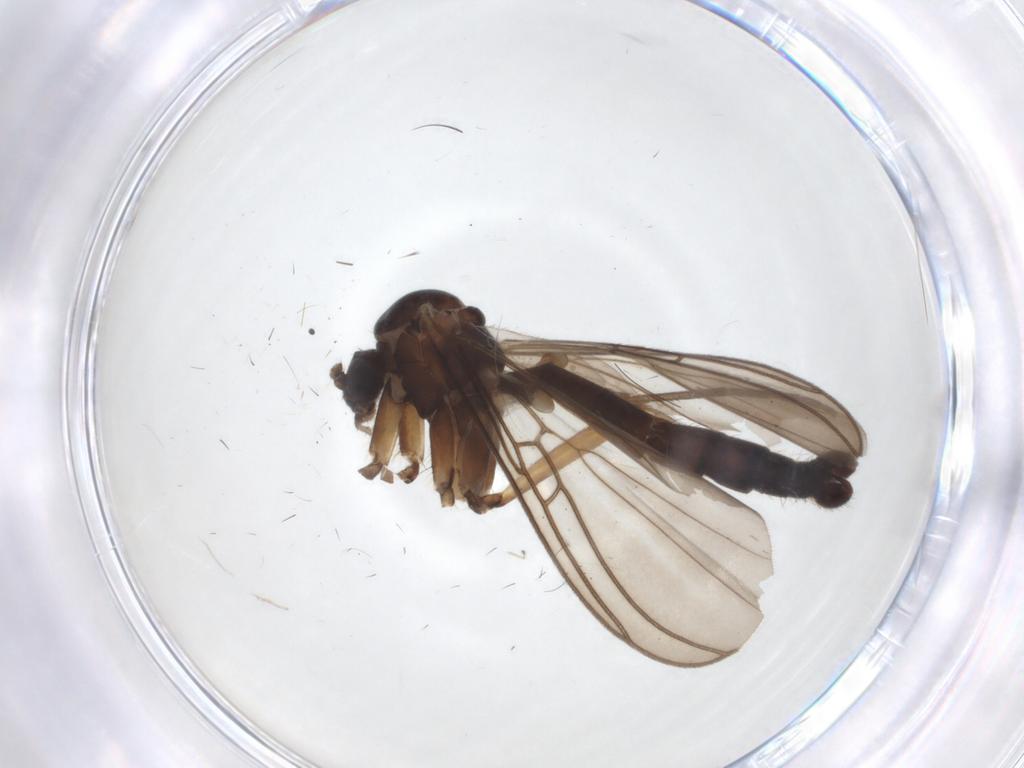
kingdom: Animalia
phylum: Arthropoda
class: Insecta
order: Diptera
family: Mycetophilidae
